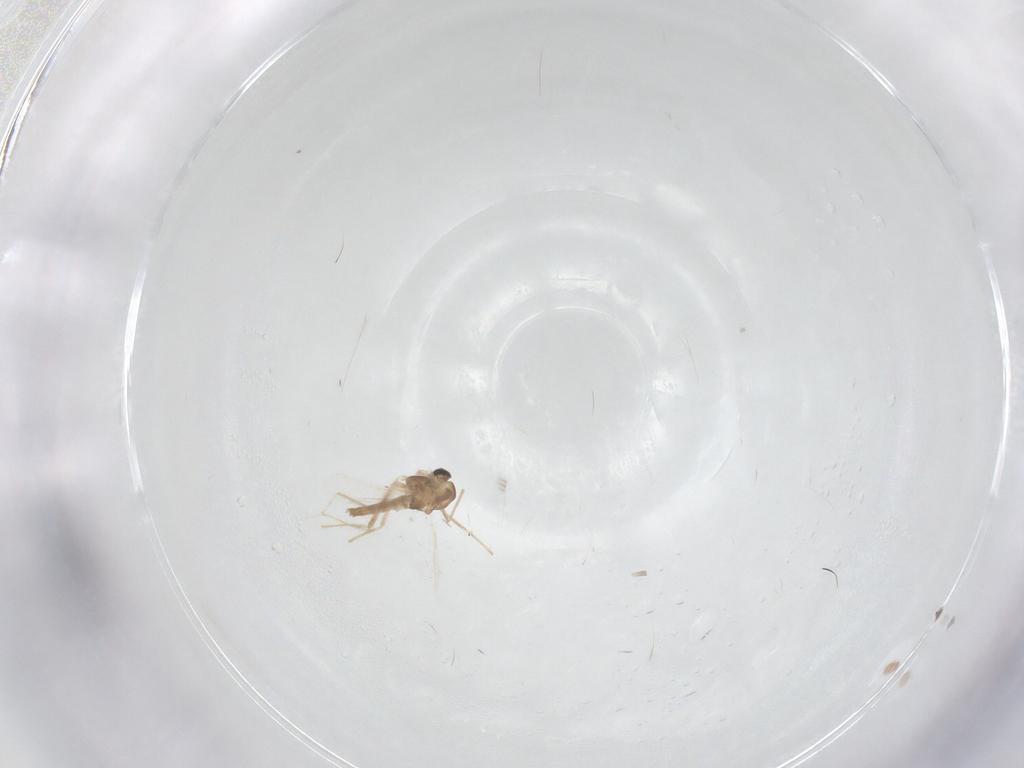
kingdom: Animalia
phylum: Arthropoda
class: Insecta
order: Diptera
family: Chironomidae
